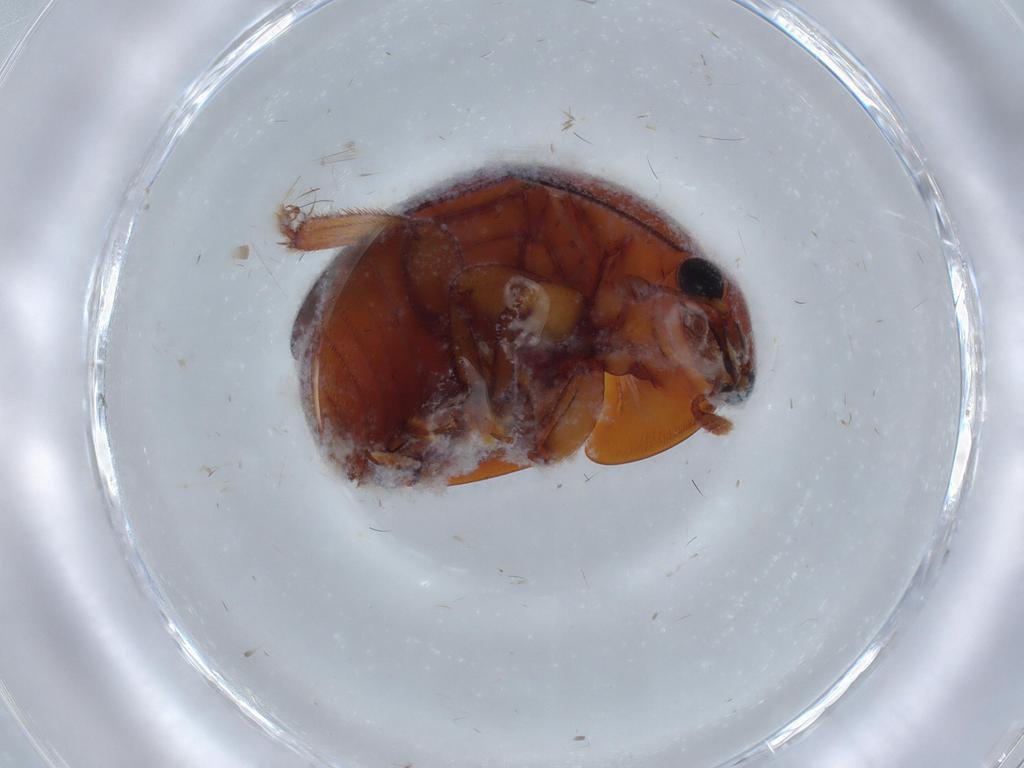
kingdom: Animalia
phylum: Arthropoda
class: Insecta
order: Coleoptera
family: Nitidulidae
